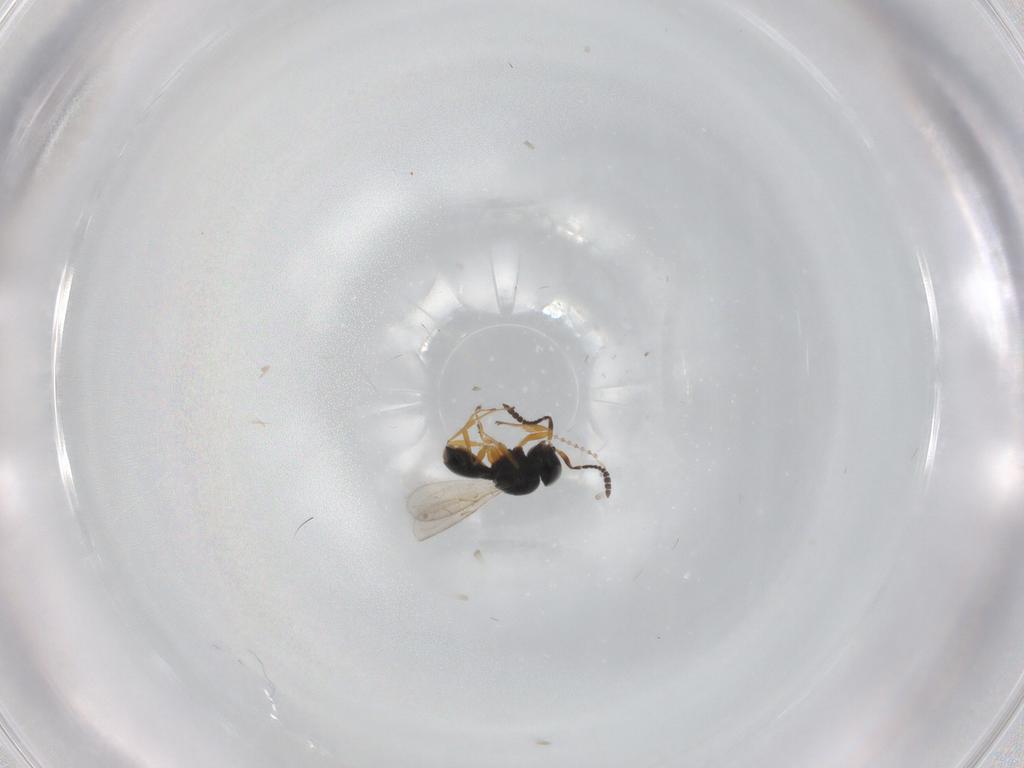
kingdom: Animalia
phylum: Arthropoda
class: Insecta
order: Hymenoptera
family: Scelionidae
